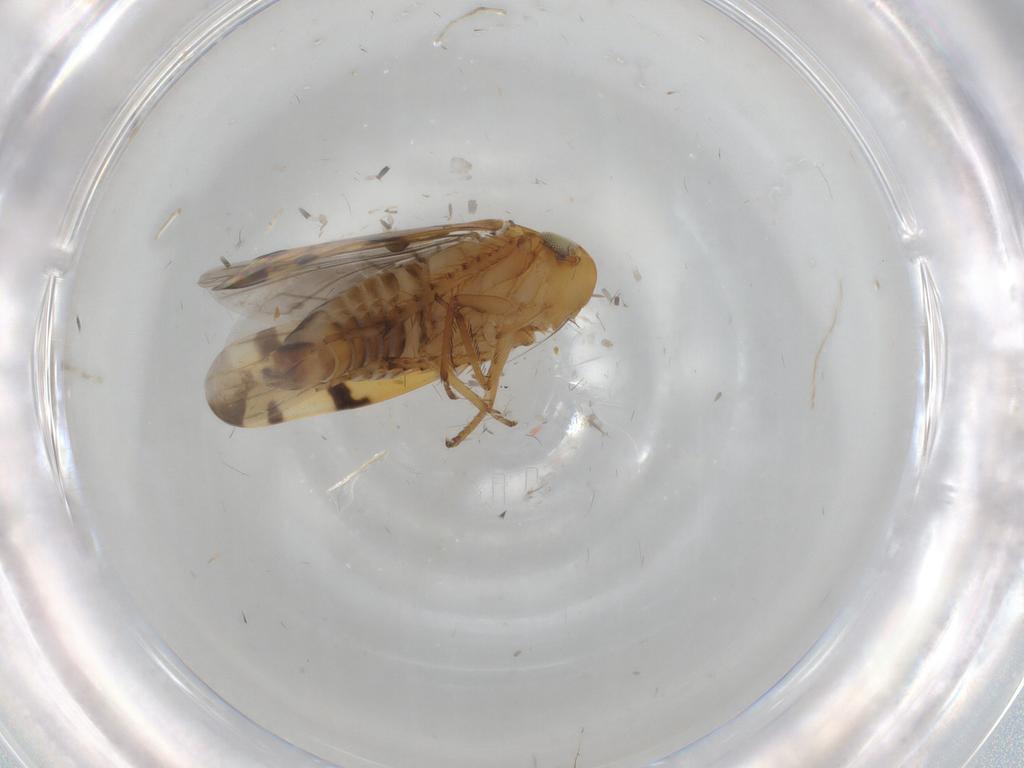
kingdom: Animalia
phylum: Arthropoda
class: Insecta
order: Hemiptera
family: Cicadellidae
